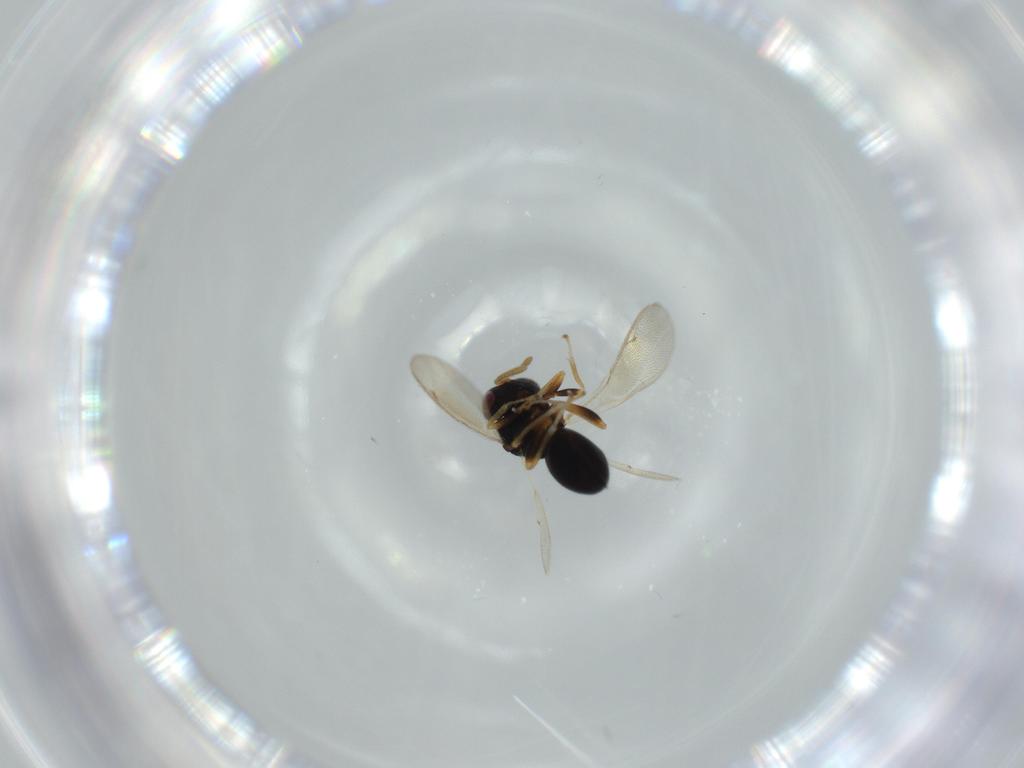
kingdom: Animalia
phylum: Arthropoda
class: Insecta
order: Hymenoptera
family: Eurytomidae
